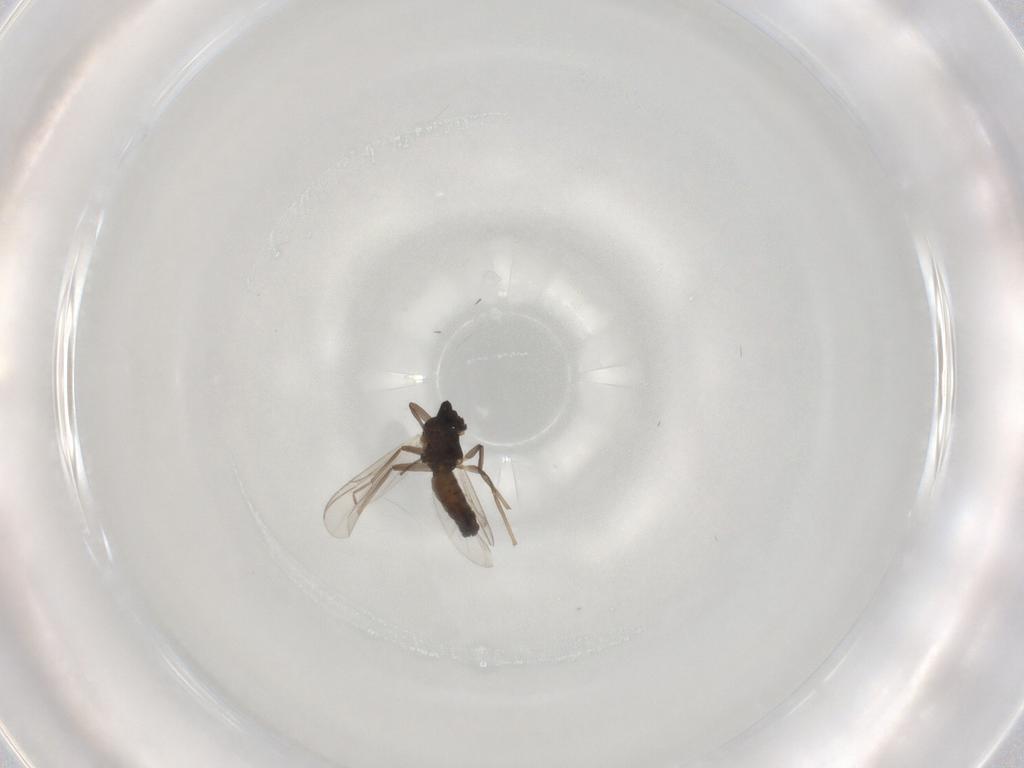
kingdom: Animalia
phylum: Arthropoda
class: Insecta
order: Diptera
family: Chironomidae
